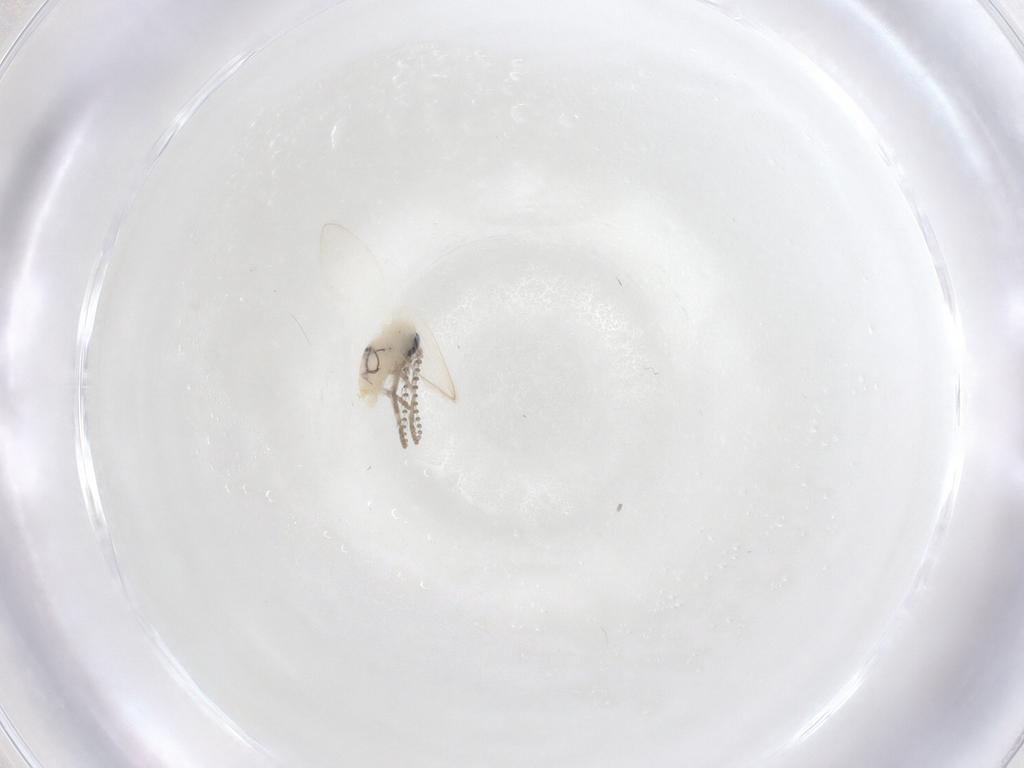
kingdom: Animalia
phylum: Arthropoda
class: Insecta
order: Diptera
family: Psychodidae
